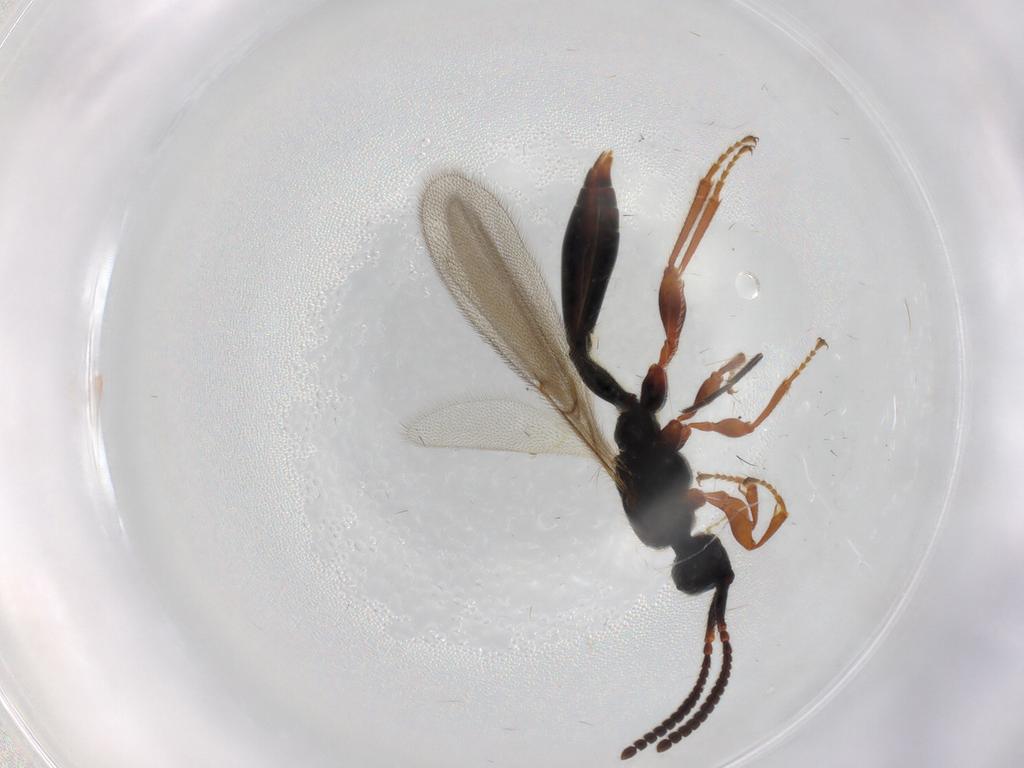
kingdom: Animalia
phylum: Arthropoda
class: Insecta
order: Hymenoptera
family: Diapriidae
